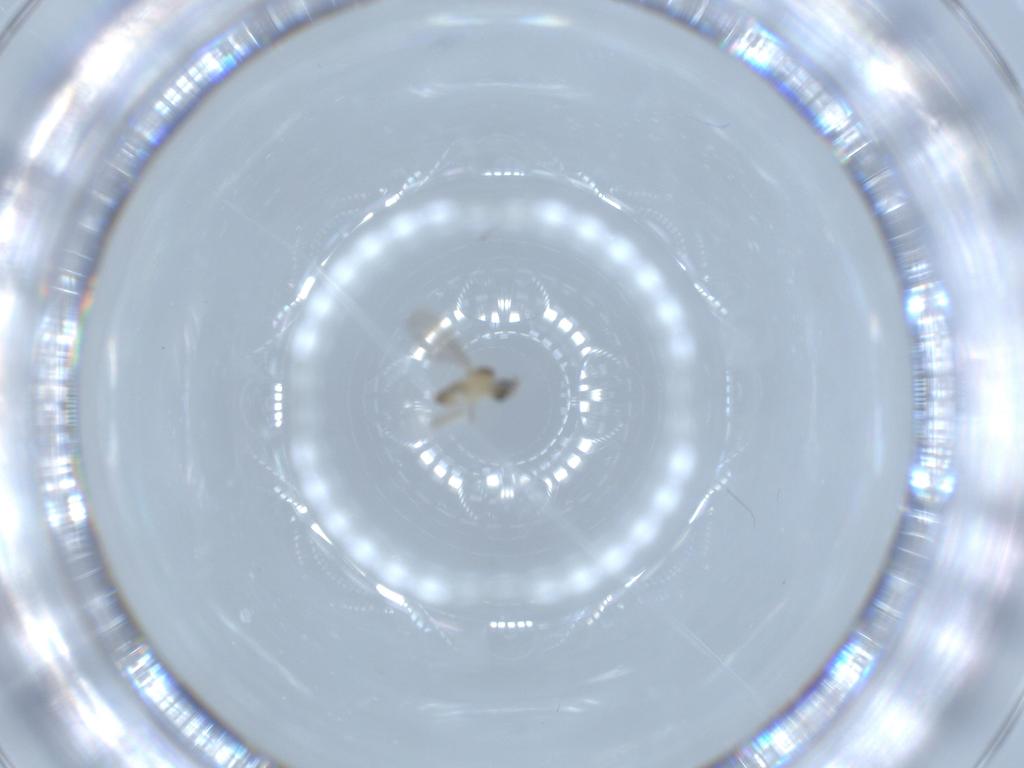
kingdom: Animalia
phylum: Arthropoda
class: Insecta
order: Diptera
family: Cecidomyiidae
